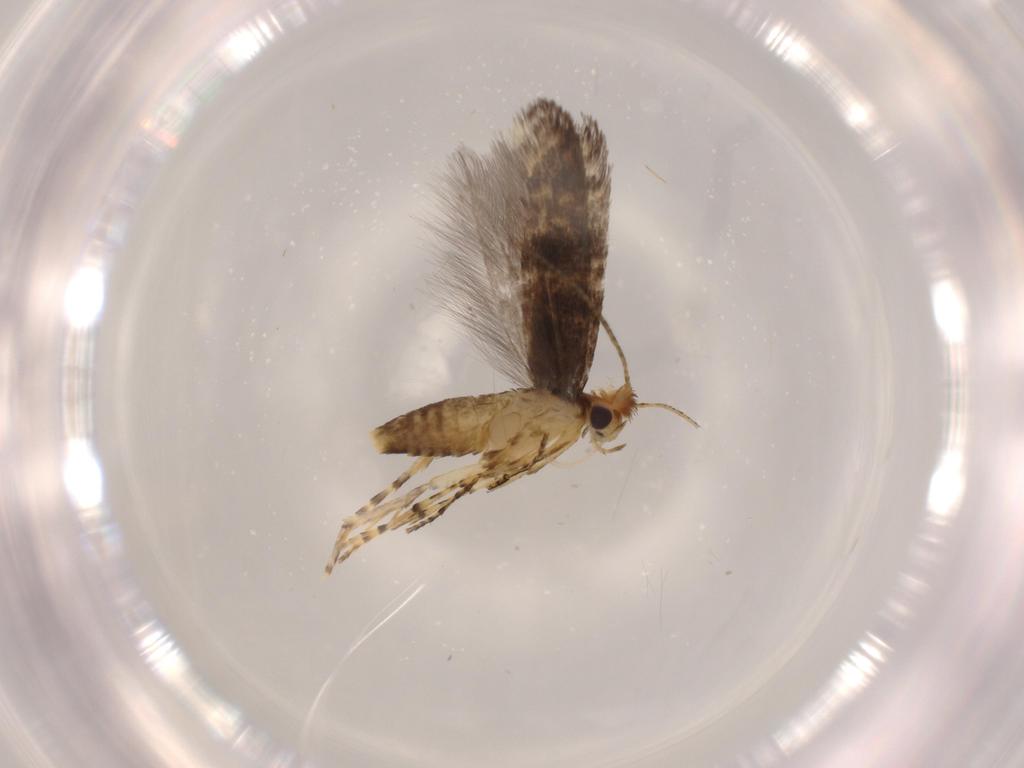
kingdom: Animalia
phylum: Arthropoda
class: Insecta
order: Lepidoptera
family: Argyresthiidae
